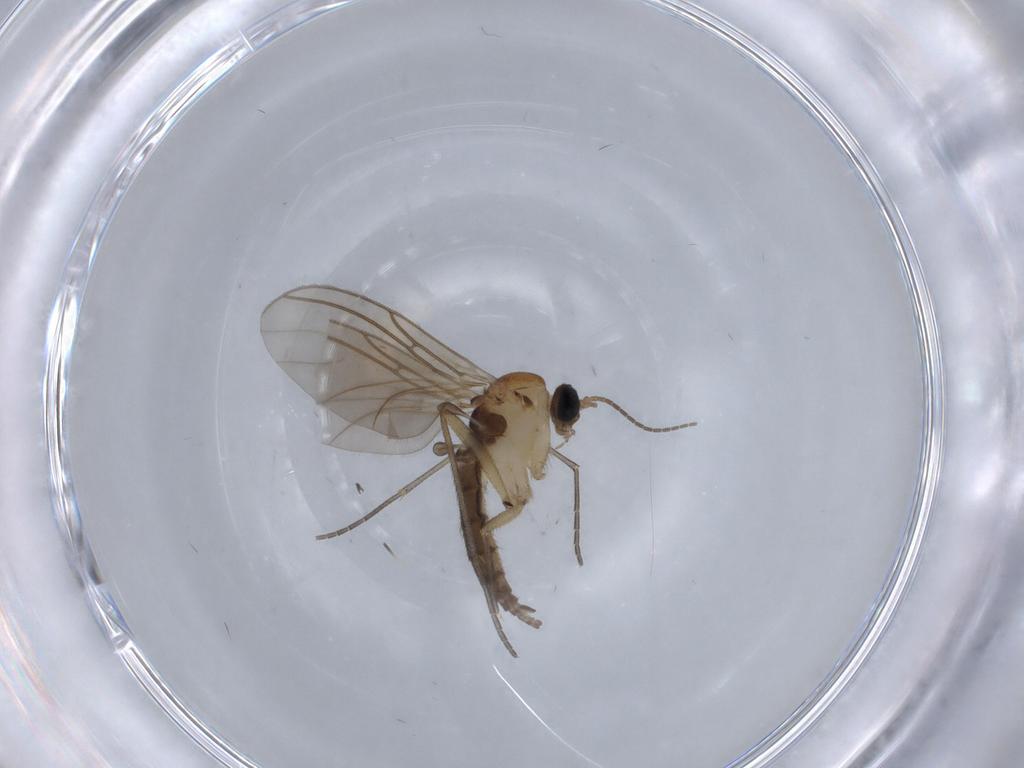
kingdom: Animalia
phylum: Arthropoda
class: Insecta
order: Diptera
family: Sciaridae
